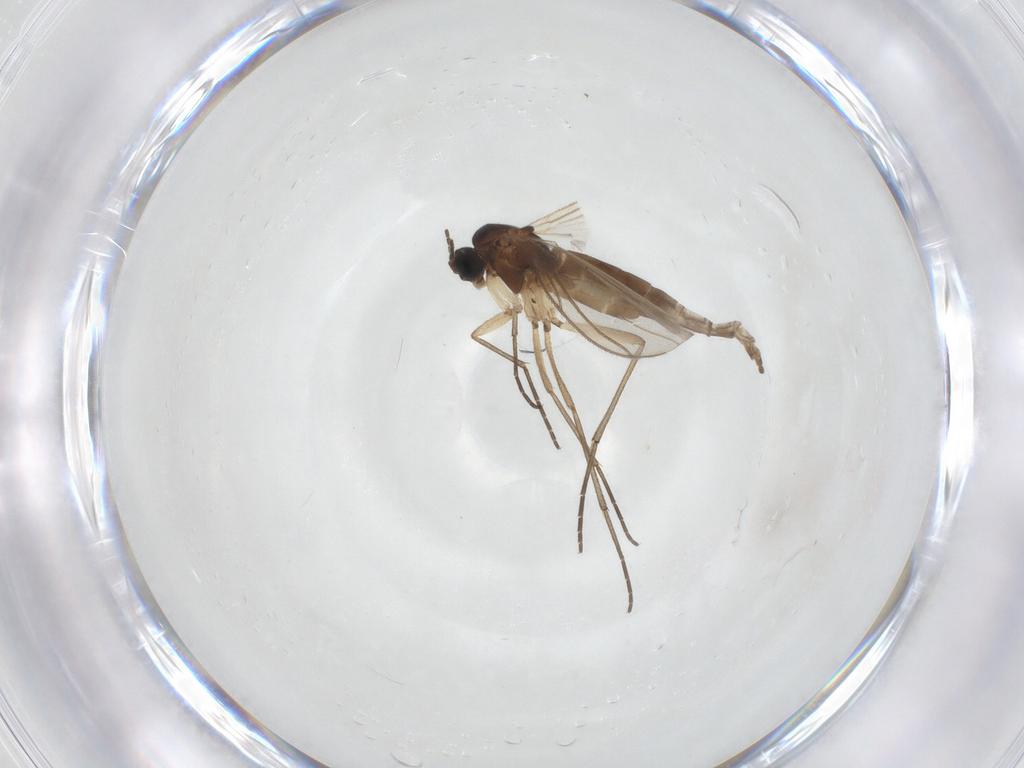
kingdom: Animalia
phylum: Arthropoda
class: Insecta
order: Diptera
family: Sciaridae
